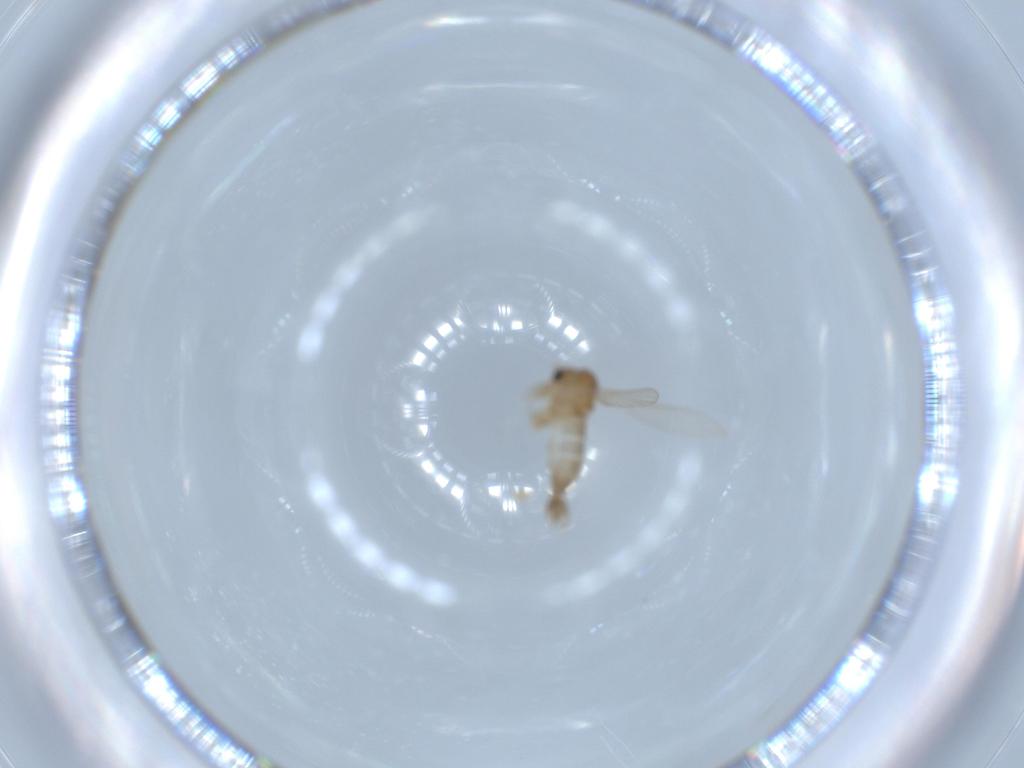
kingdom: Animalia
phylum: Arthropoda
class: Insecta
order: Diptera
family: Psychodidae
